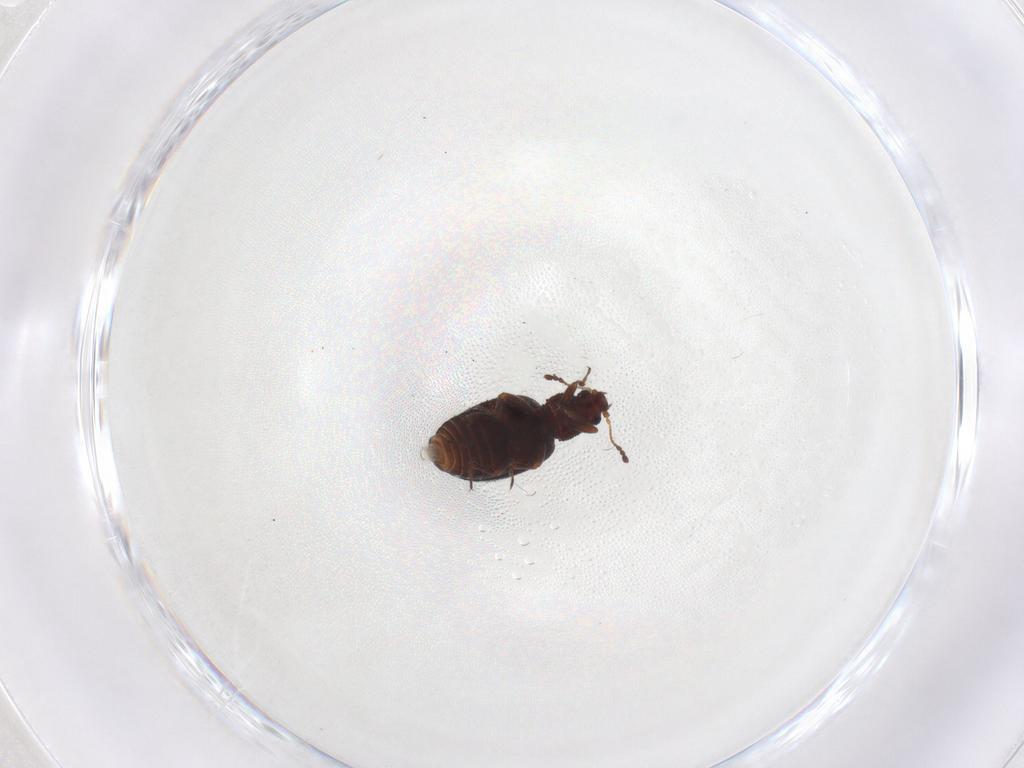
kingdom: Animalia
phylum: Arthropoda
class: Insecta
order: Coleoptera
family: Latridiidae
